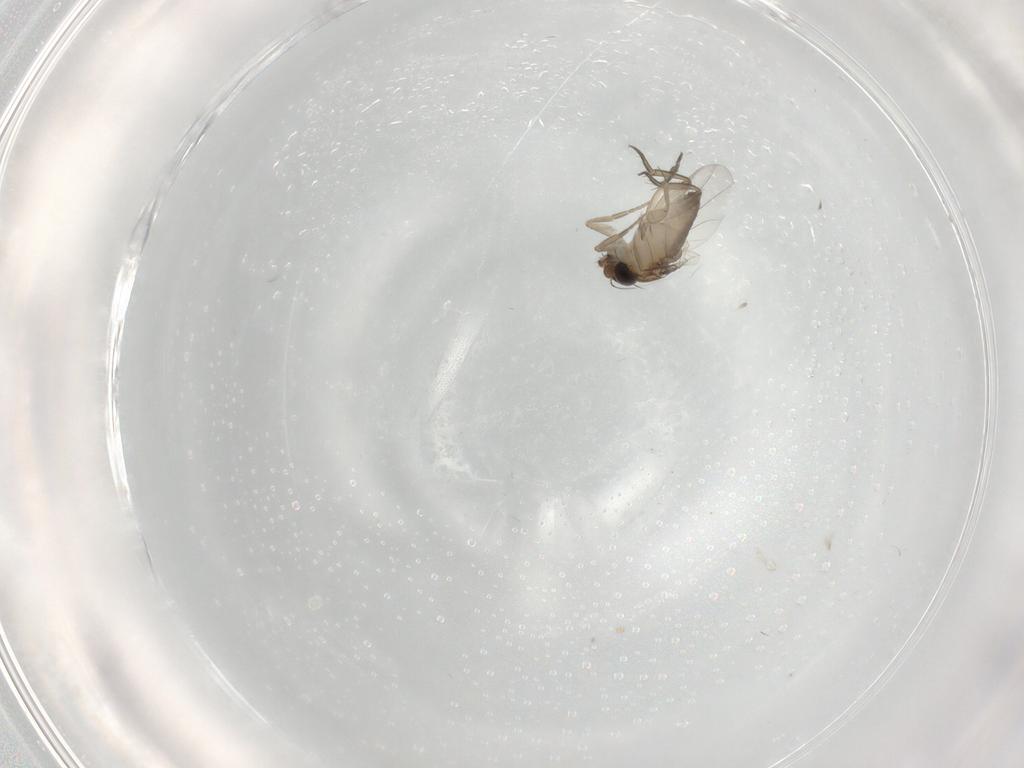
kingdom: Animalia
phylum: Arthropoda
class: Insecta
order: Diptera
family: Phoridae
